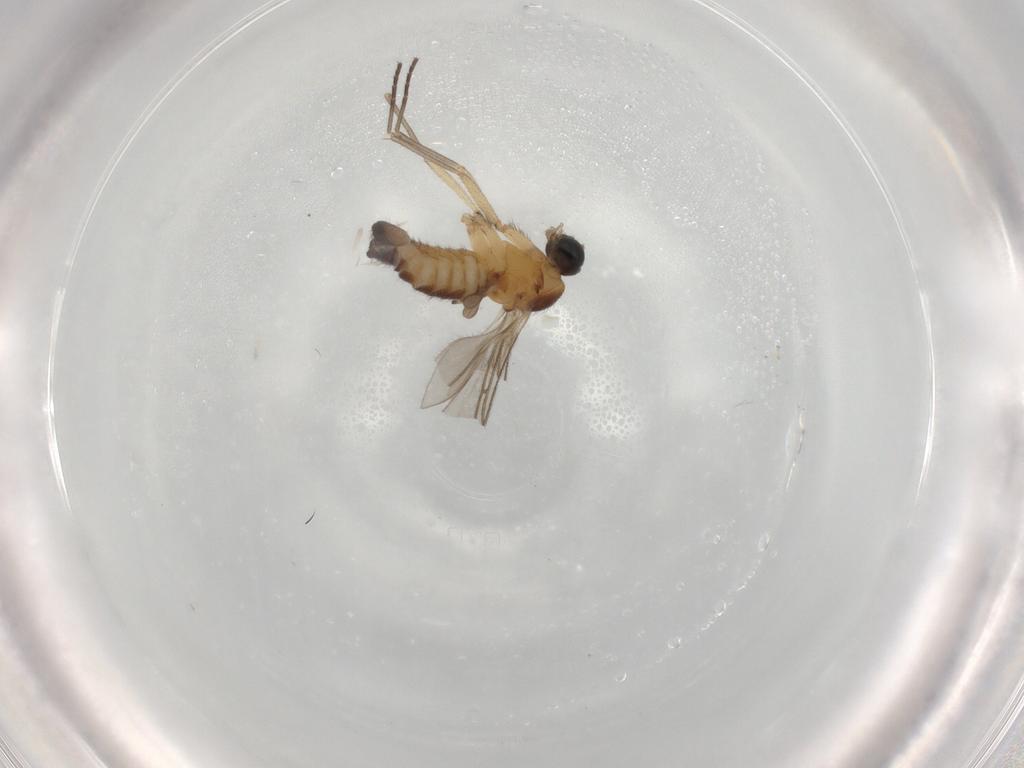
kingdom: Animalia
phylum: Arthropoda
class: Insecta
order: Diptera
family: Sciaridae
